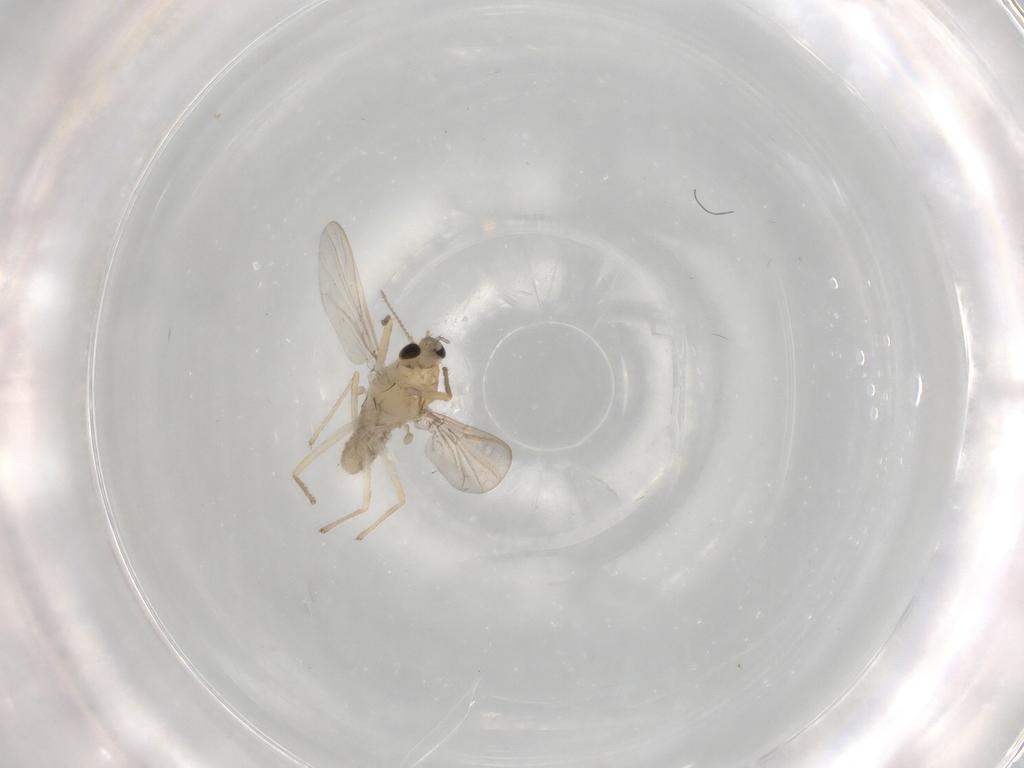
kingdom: Animalia
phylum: Arthropoda
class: Insecta
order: Diptera
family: Chironomidae
